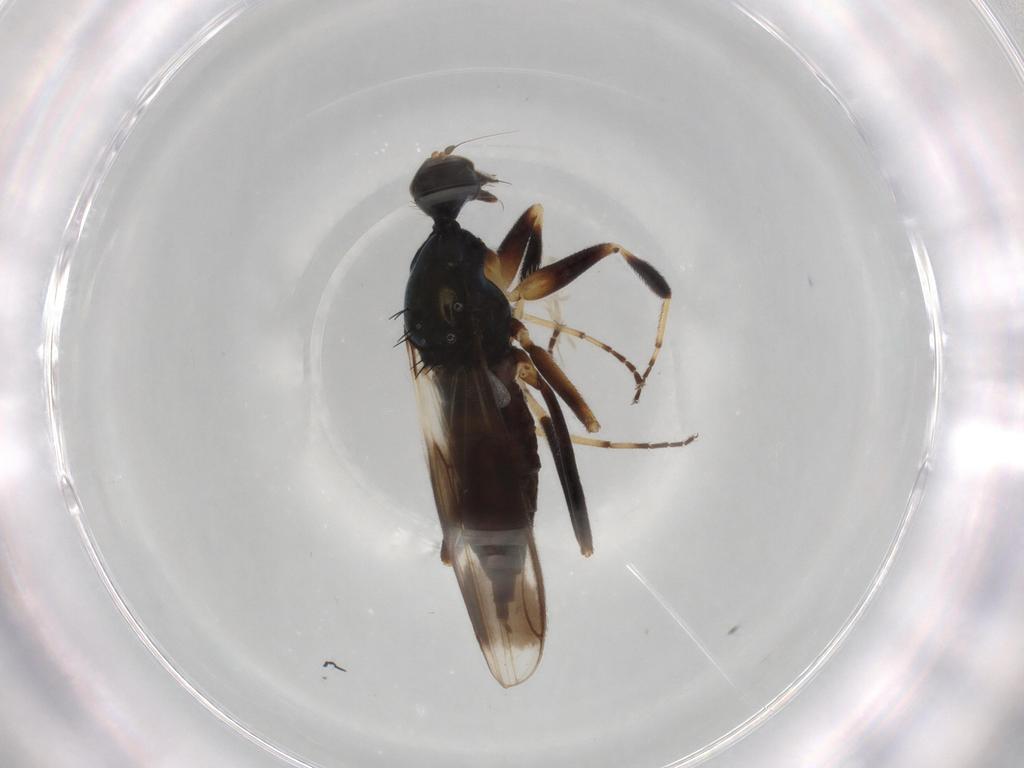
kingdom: Animalia
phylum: Arthropoda
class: Insecta
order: Diptera
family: Hybotidae
